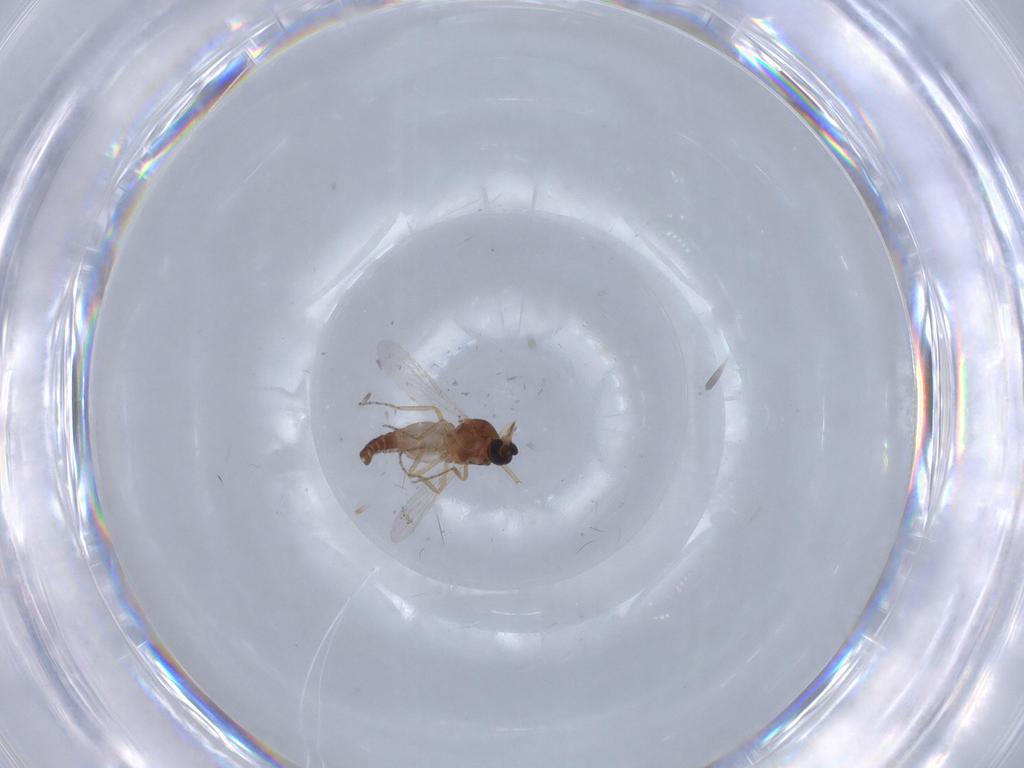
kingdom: Animalia
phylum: Arthropoda
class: Insecta
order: Diptera
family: Ceratopogonidae
